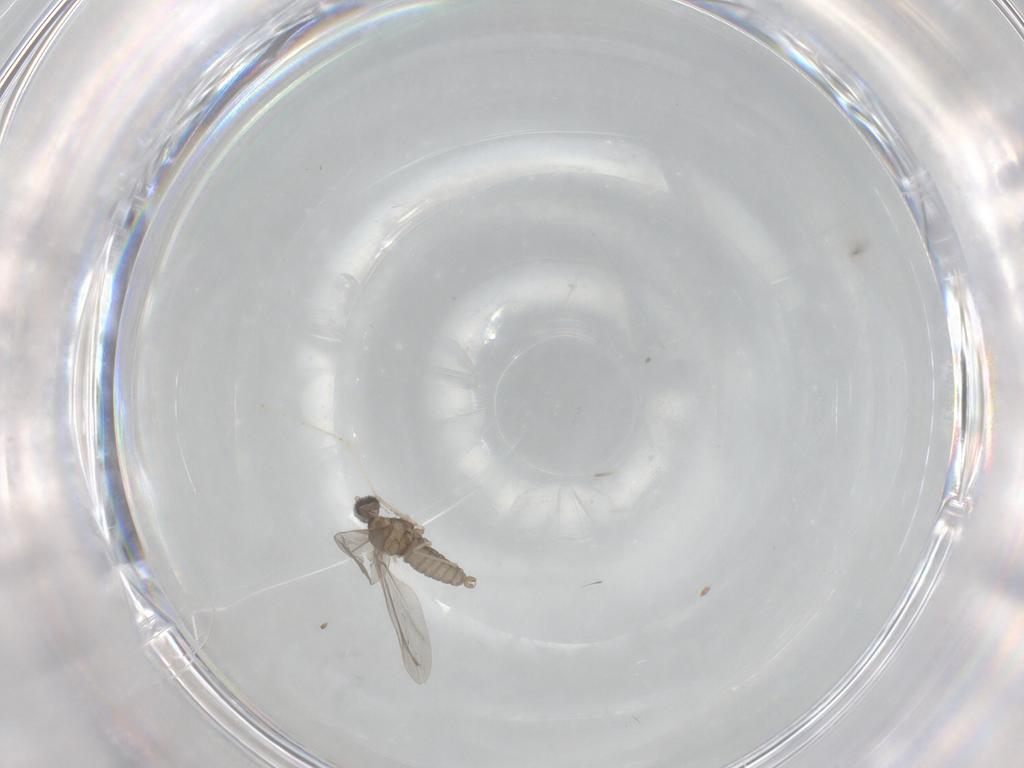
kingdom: Animalia
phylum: Arthropoda
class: Insecta
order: Diptera
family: Cecidomyiidae
